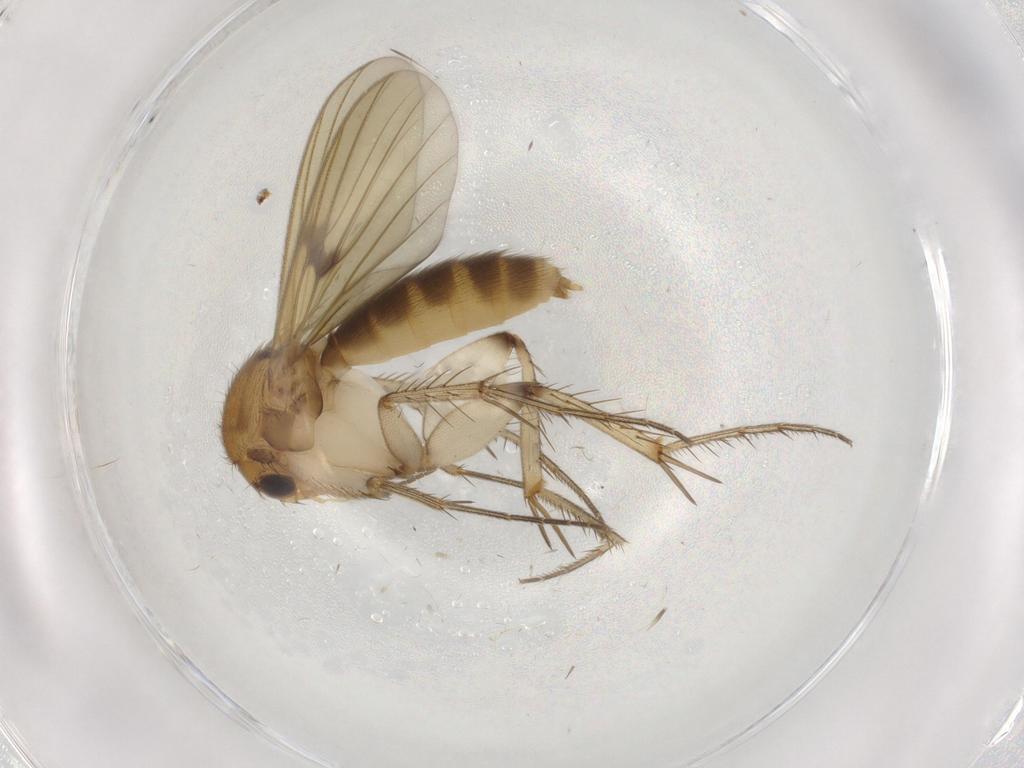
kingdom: Animalia
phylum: Arthropoda
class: Insecta
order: Diptera
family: Mycetophilidae
